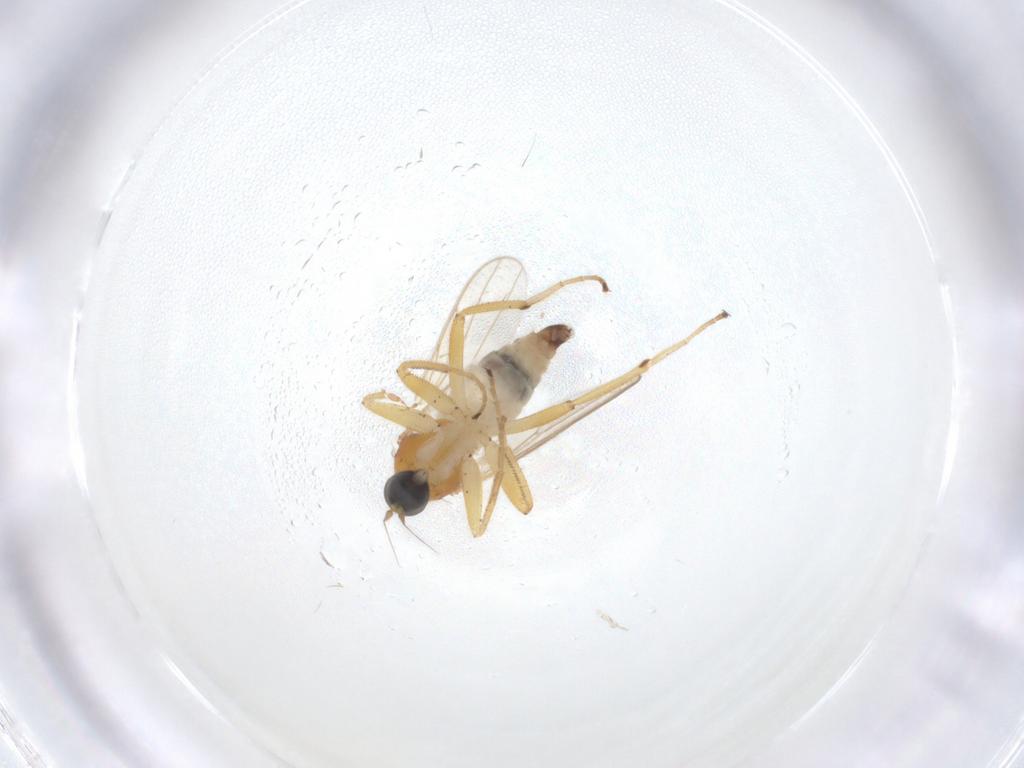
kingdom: Animalia
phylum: Arthropoda
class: Insecta
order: Diptera
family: Hybotidae
